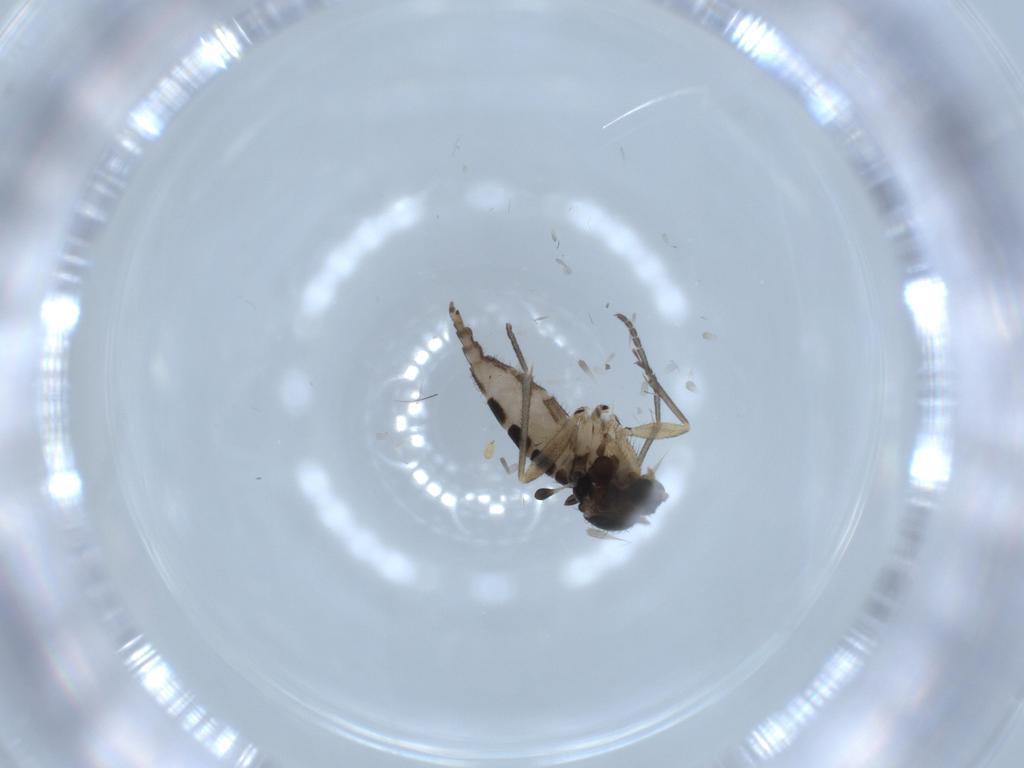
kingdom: Animalia
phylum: Arthropoda
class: Insecta
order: Diptera
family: Sciaridae
